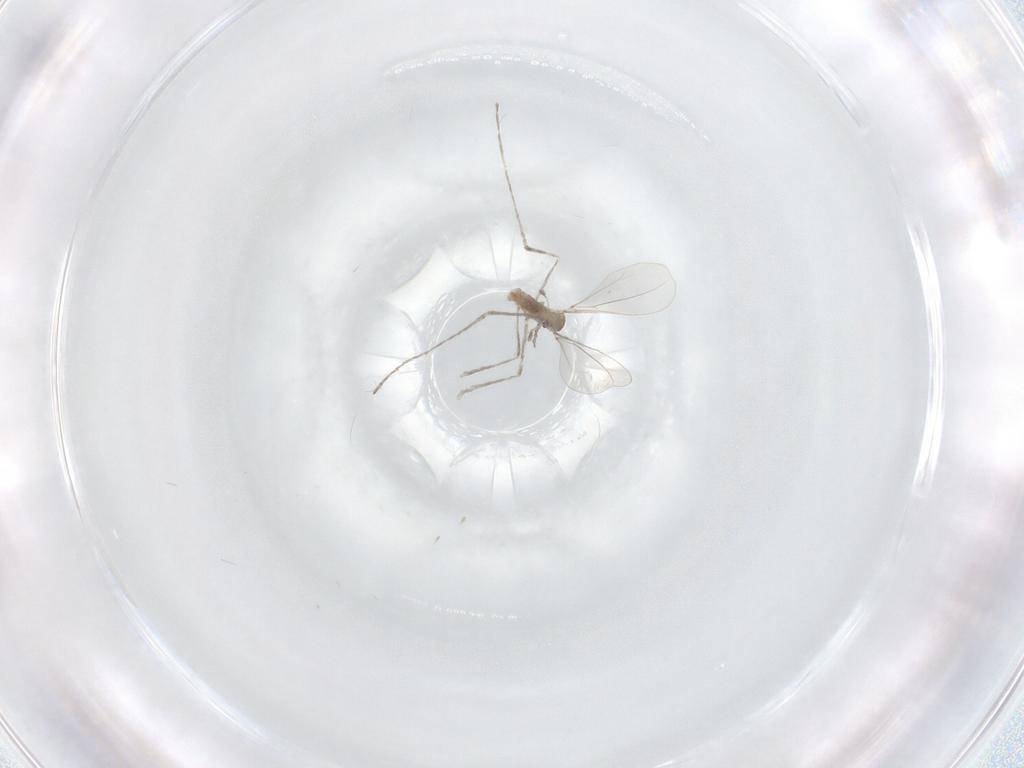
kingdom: Animalia
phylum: Arthropoda
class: Insecta
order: Diptera
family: Cecidomyiidae
